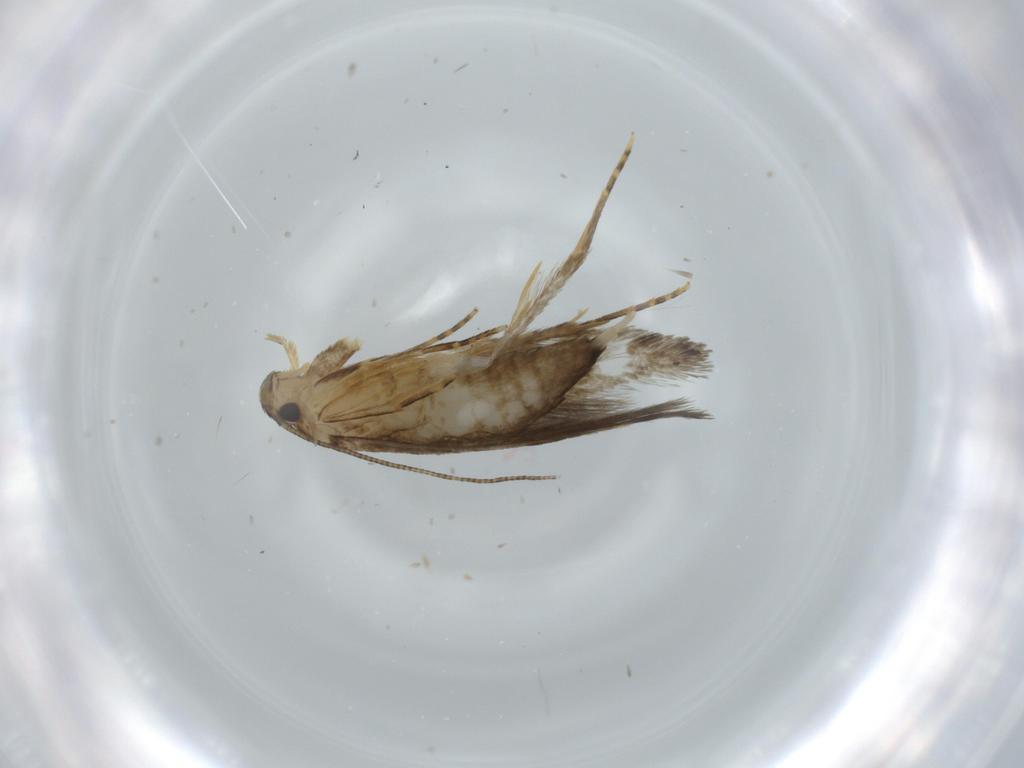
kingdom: Animalia
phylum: Arthropoda
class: Insecta
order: Lepidoptera
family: Tineidae
